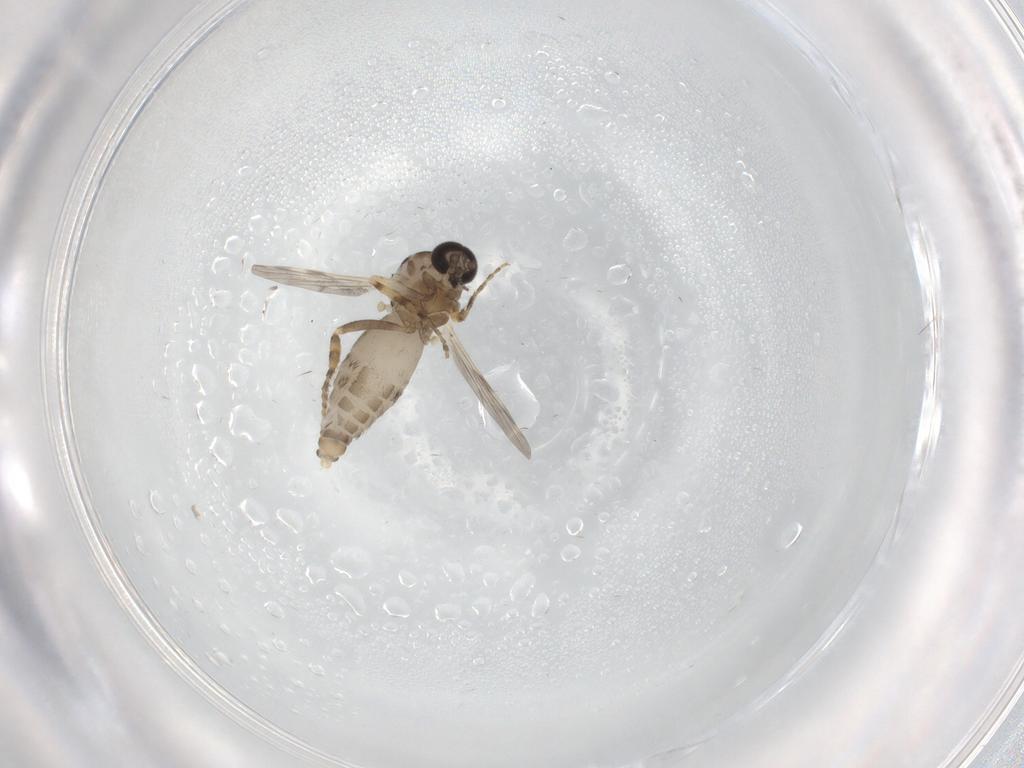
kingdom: Animalia
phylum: Arthropoda
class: Insecta
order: Diptera
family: Ceratopogonidae
